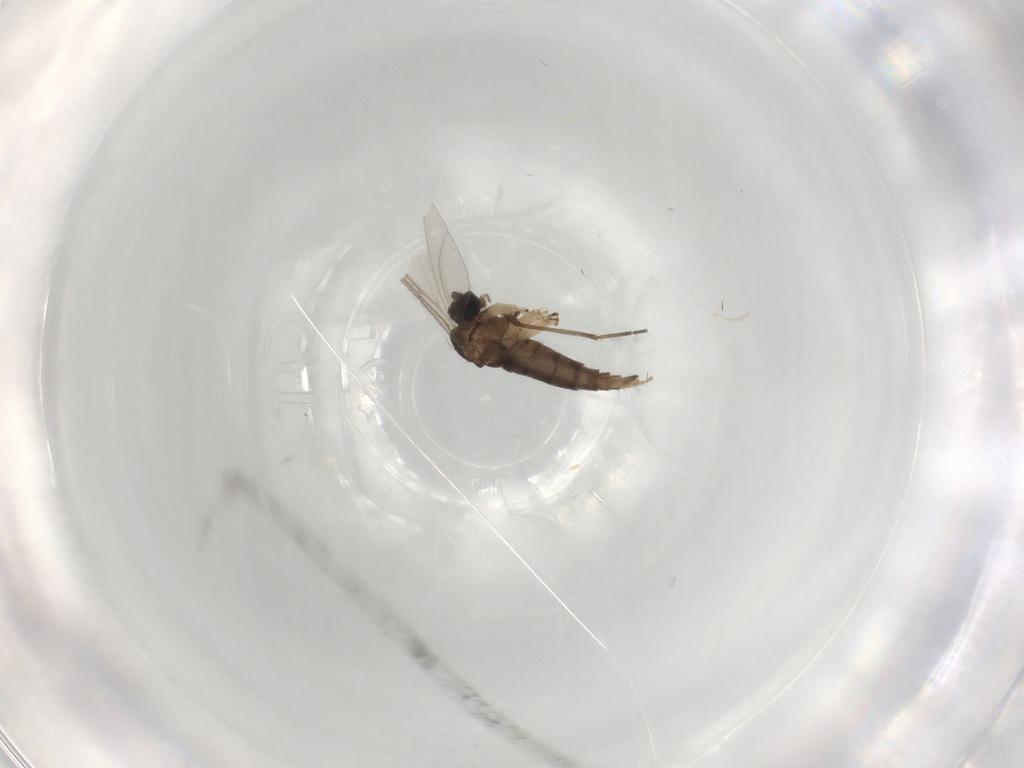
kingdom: Animalia
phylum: Arthropoda
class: Insecta
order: Diptera
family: Sciaridae
